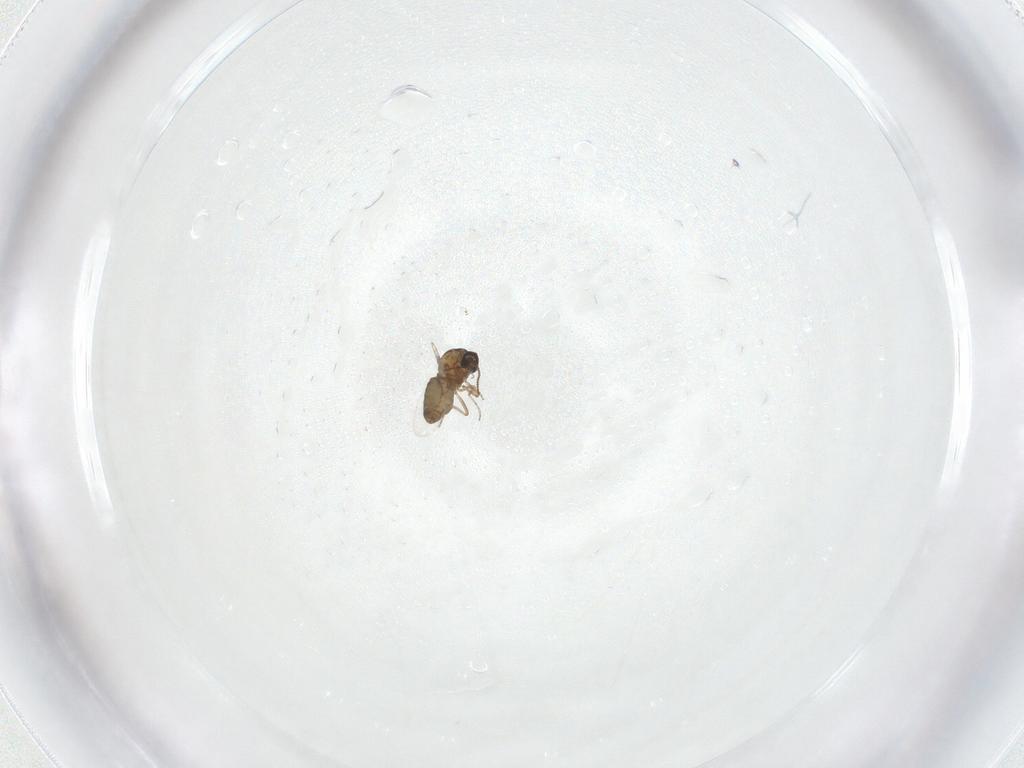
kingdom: Animalia
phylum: Arthropoda
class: Insecta
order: Diptera
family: Ceratopogonidae
